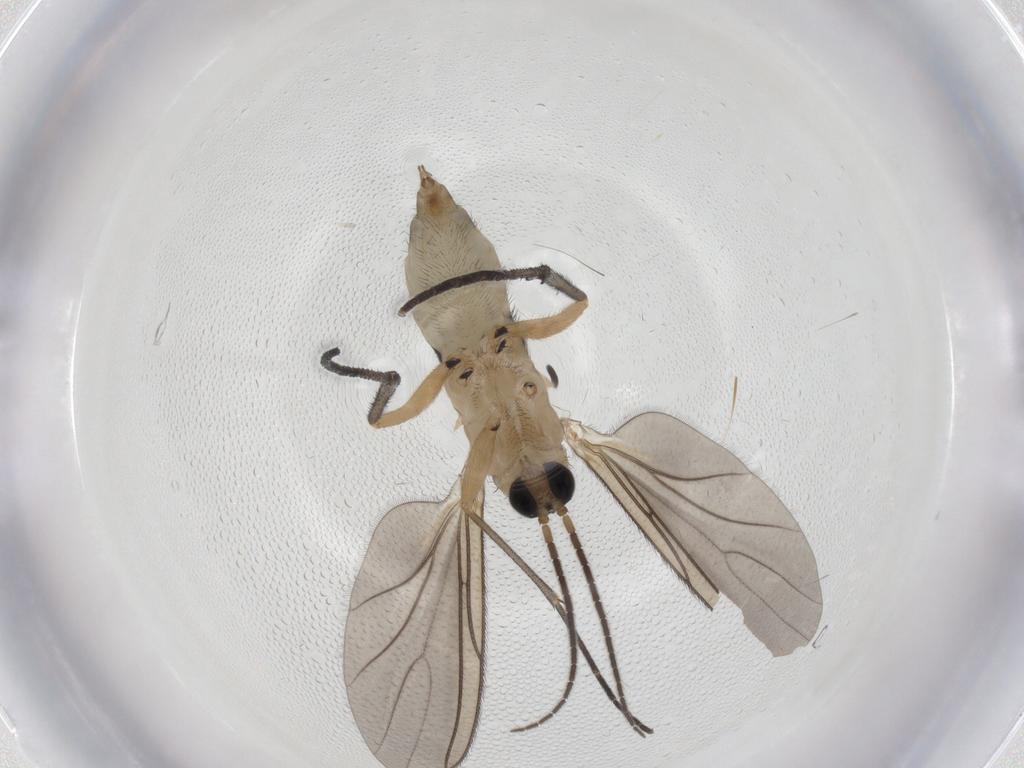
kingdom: Animalia
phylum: Arthropoda
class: Insecta
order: Diptera
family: Sciaridae
